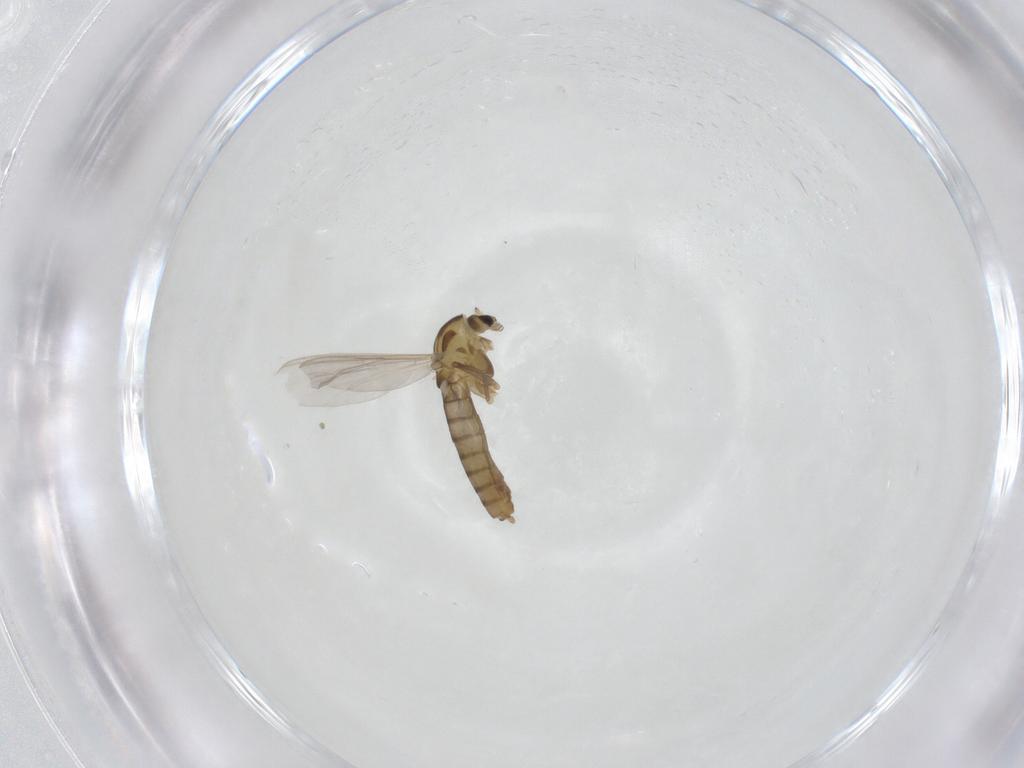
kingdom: Animalia
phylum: Arthropoda
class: Insecta
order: Diptera
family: Chironomidae
